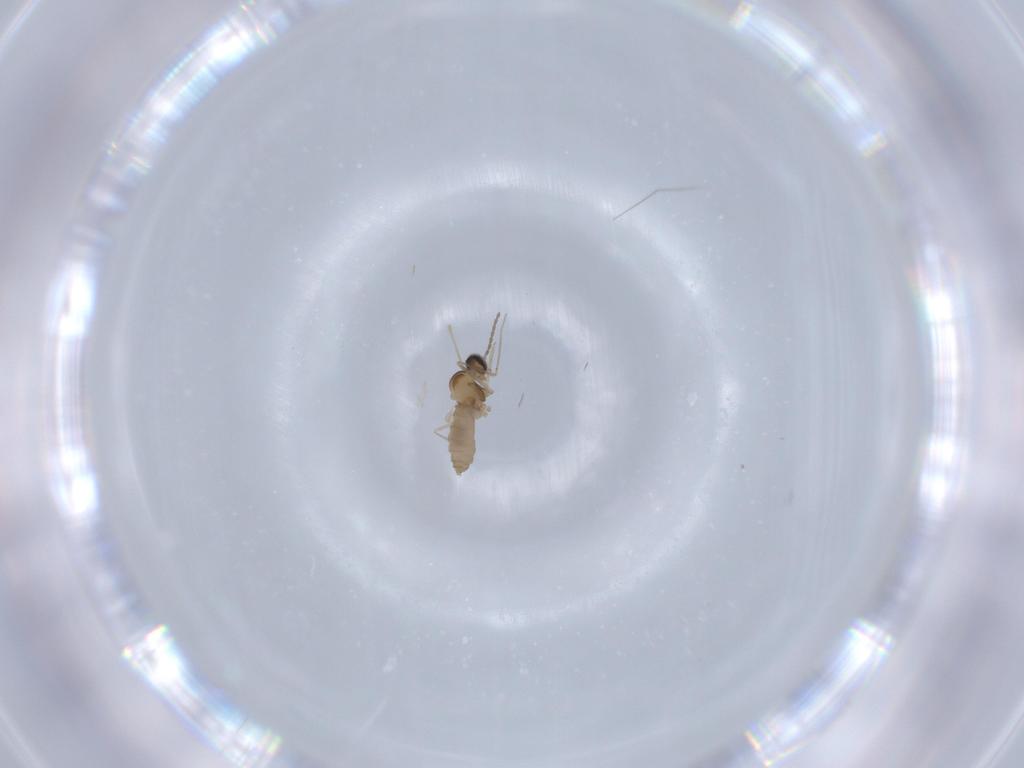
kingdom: Animalia
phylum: Arthropoda
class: Insecta
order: Diptera
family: Cecidomyiidae
